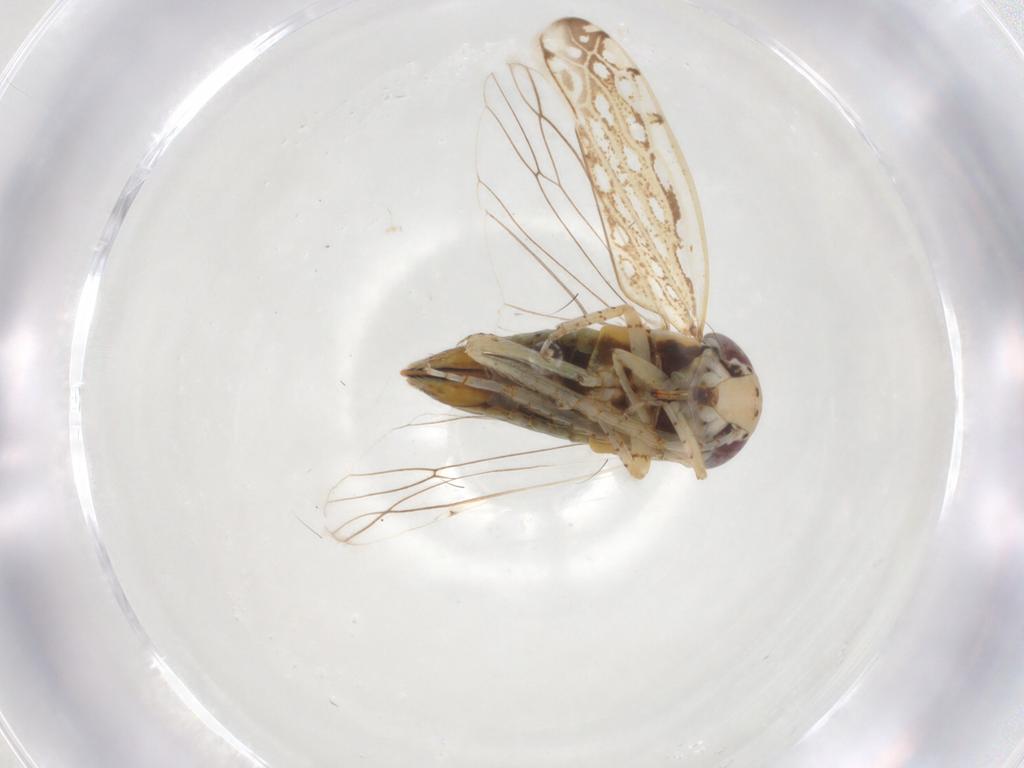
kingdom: Animalia
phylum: Arthropoda
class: Insecta
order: Hemiptera
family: Cicadellidae
